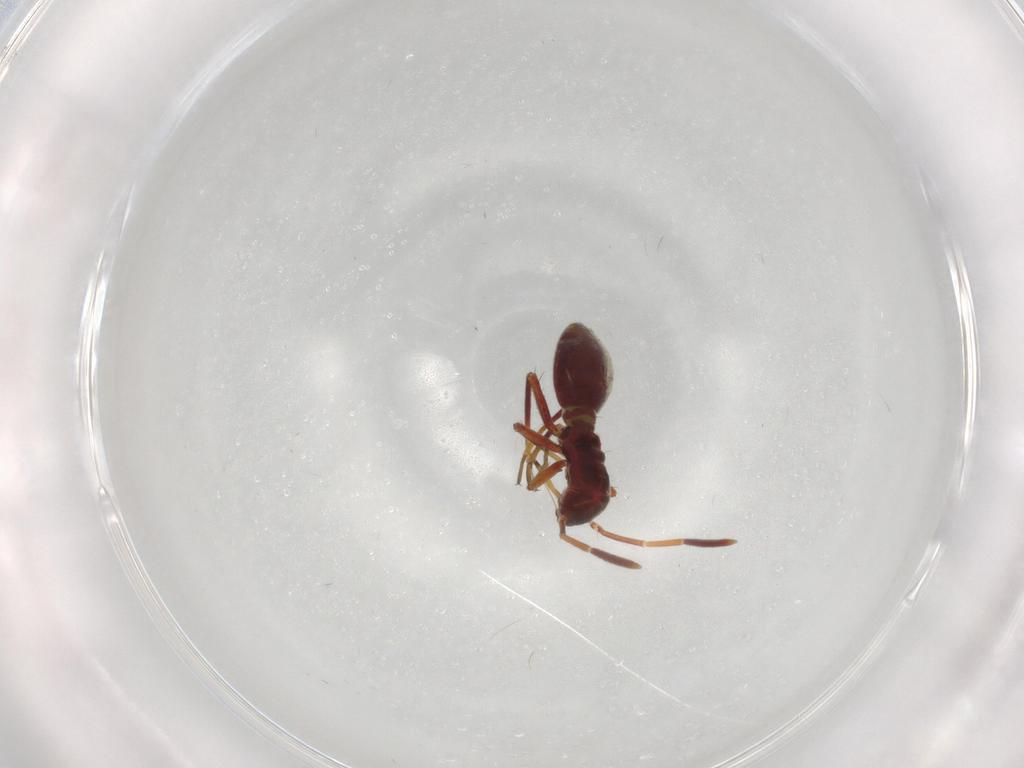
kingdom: Animalia
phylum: Arthropoda
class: Insecta
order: Hemiptera
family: Miridae
